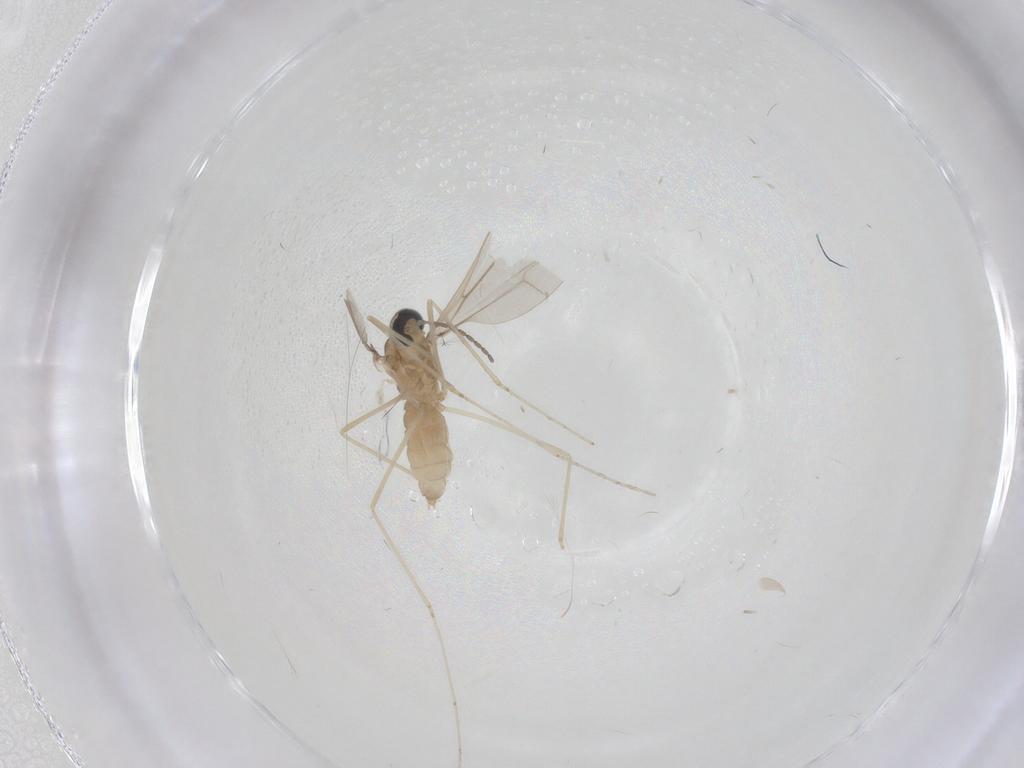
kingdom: Animalia
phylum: Arthropoda
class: Insecta
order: Diptera
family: Cecidomyiidae
